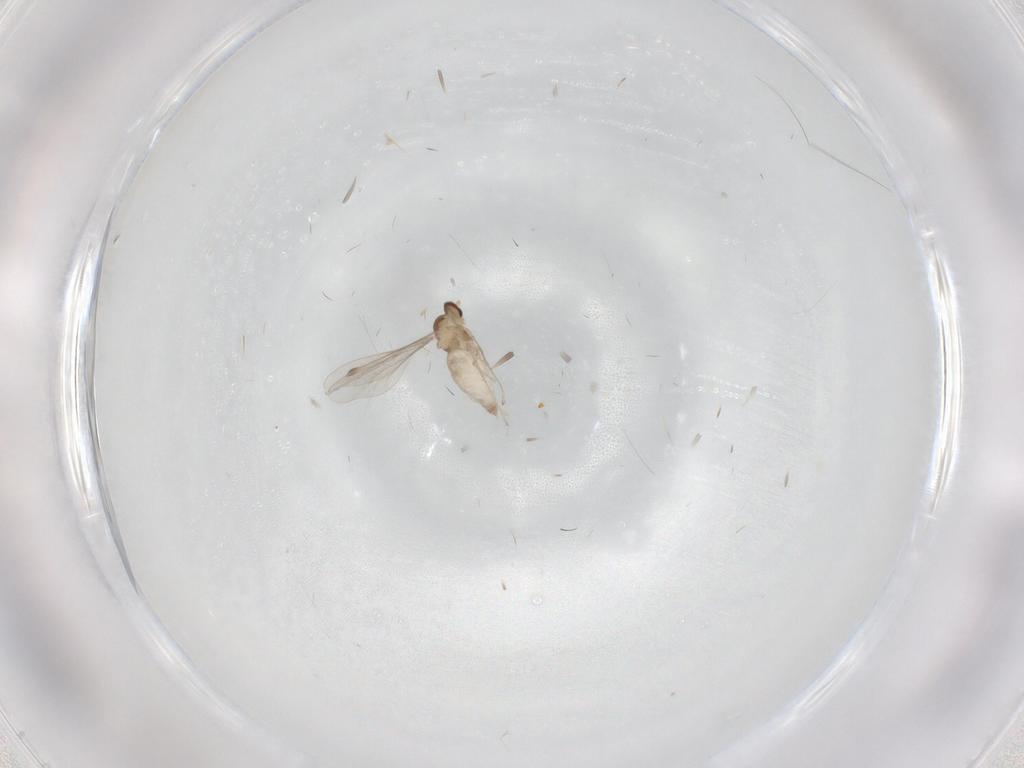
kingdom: Animalia
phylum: Arthropoda
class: Insecta
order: Diptera
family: Cecidomyiidae
